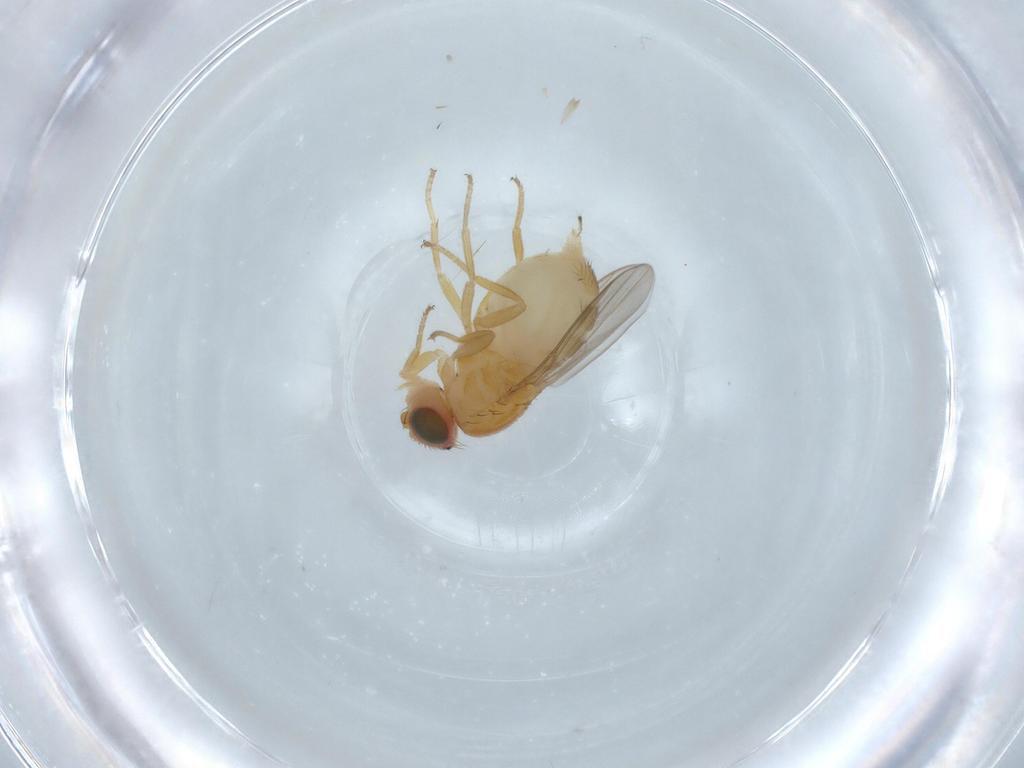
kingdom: Animalia
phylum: Arthropoda
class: Insecta
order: Diptera
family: Chloropidae
